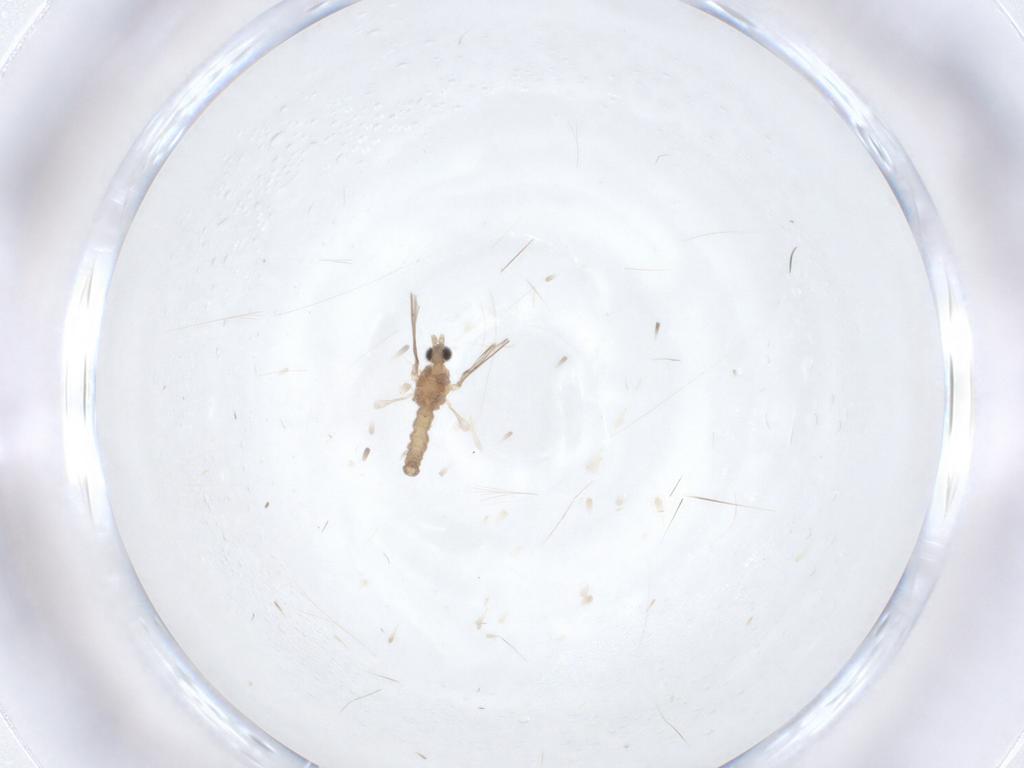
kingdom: Animalia
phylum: Arthropoda
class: Insecta
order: Diptera
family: Cecidomyiidae
